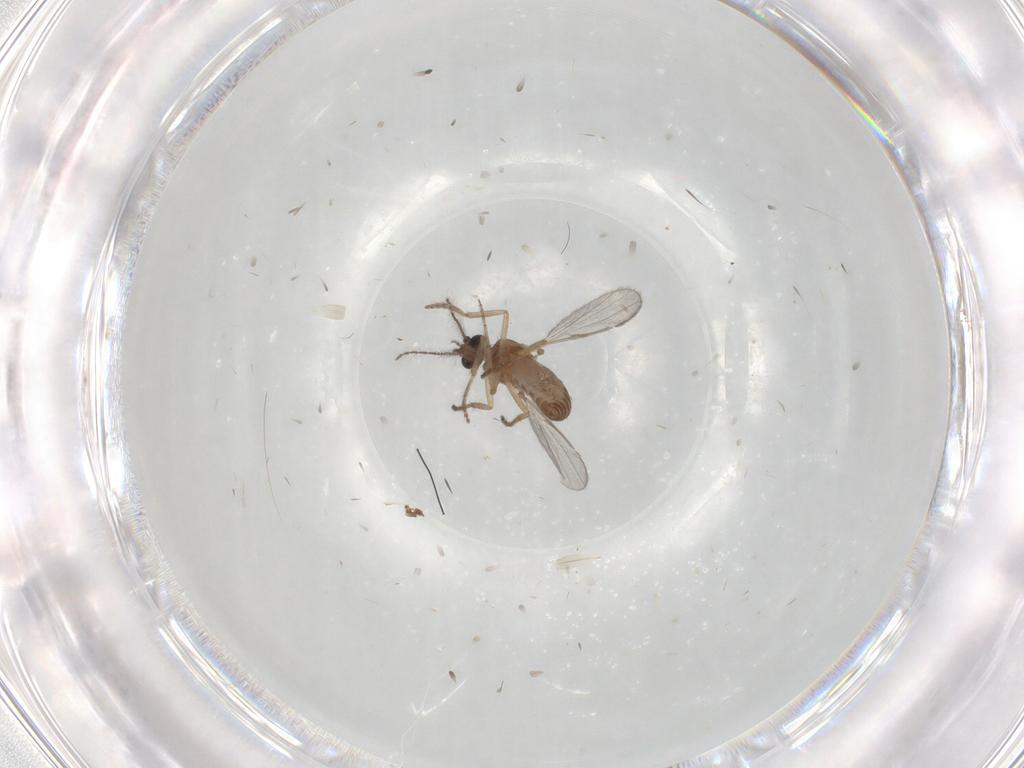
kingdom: Animalia
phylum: Arthropoda
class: Insecta
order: Diptera
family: Ceratopogonidae
